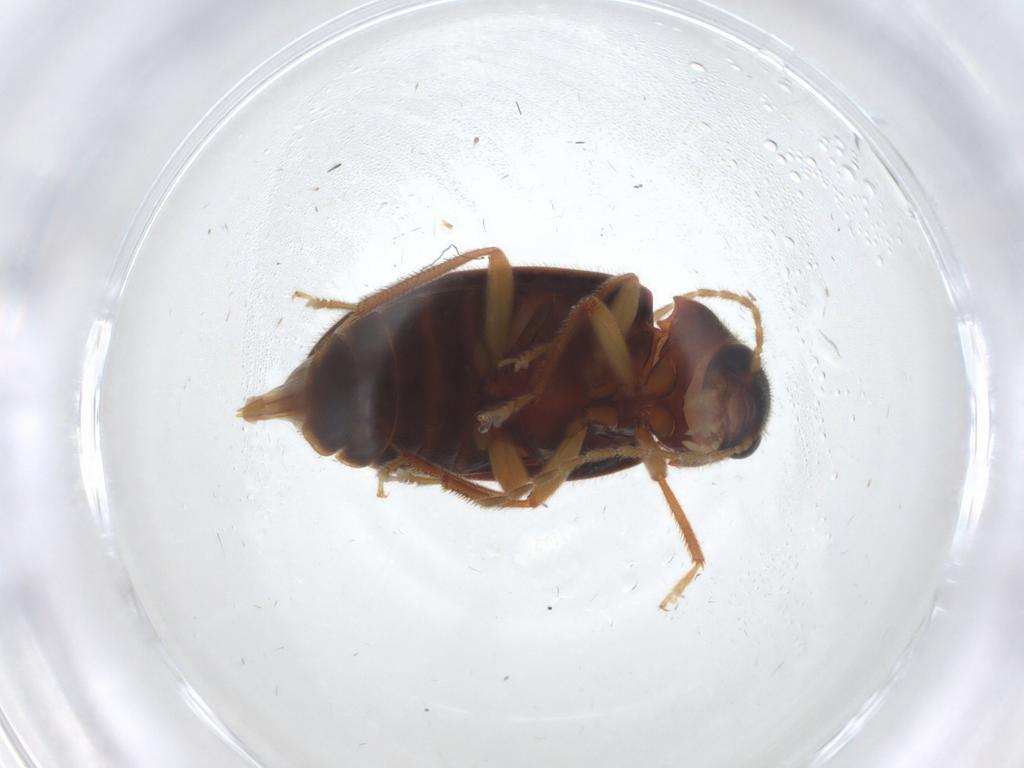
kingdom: Animalia
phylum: Arthropoda
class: Insecta
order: Coleoptera
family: Ptilodactylidae
